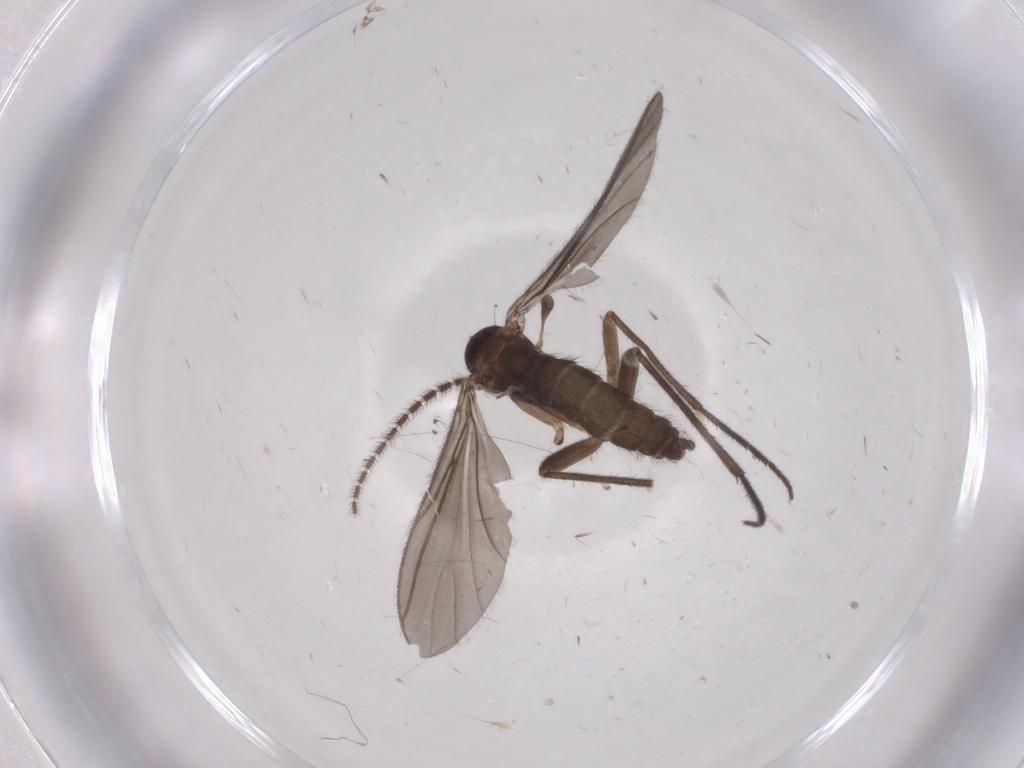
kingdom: Animalia
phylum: Arthropoda
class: Insecta
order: Diptera
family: Sciaridae
